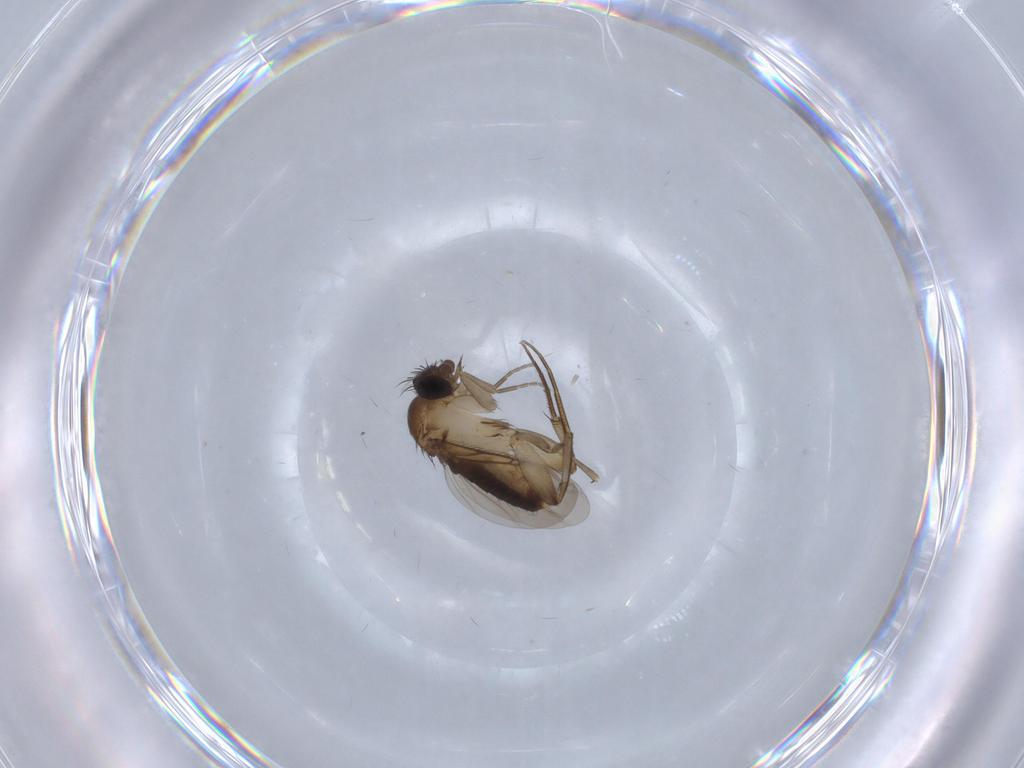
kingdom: Animalia
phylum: Arthropoda
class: Insecta
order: Diptera
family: Phoridae
